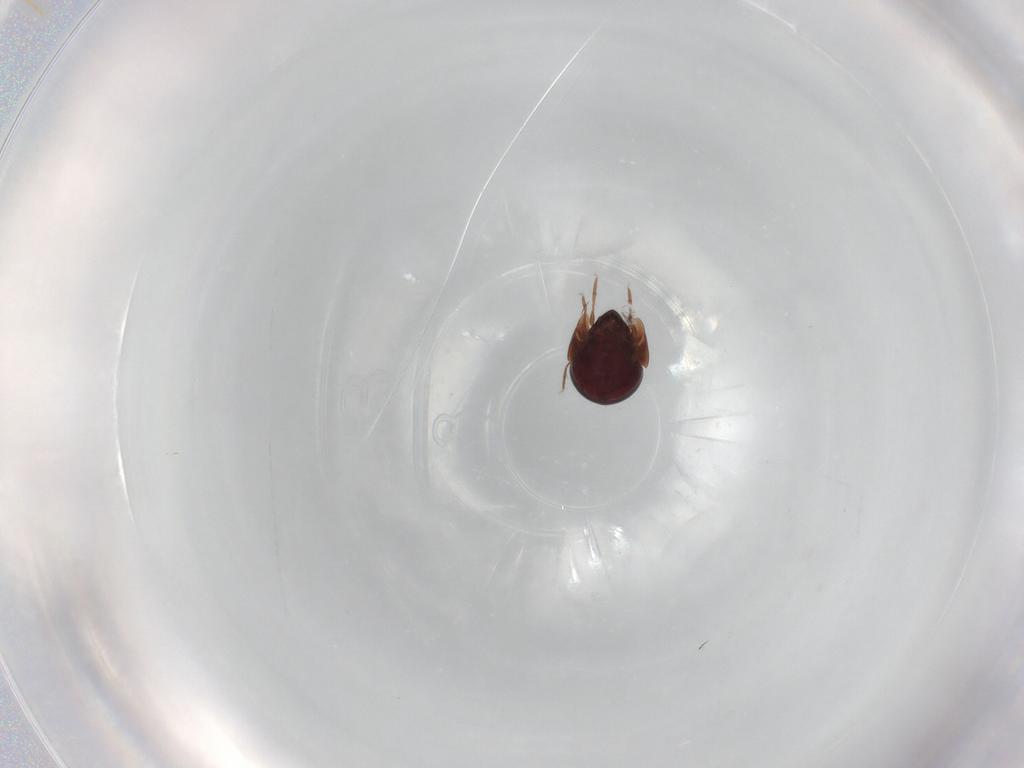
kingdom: Animalia
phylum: Arthropoda
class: Arachnida
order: Sarcoptiformes
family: Galumnidae
